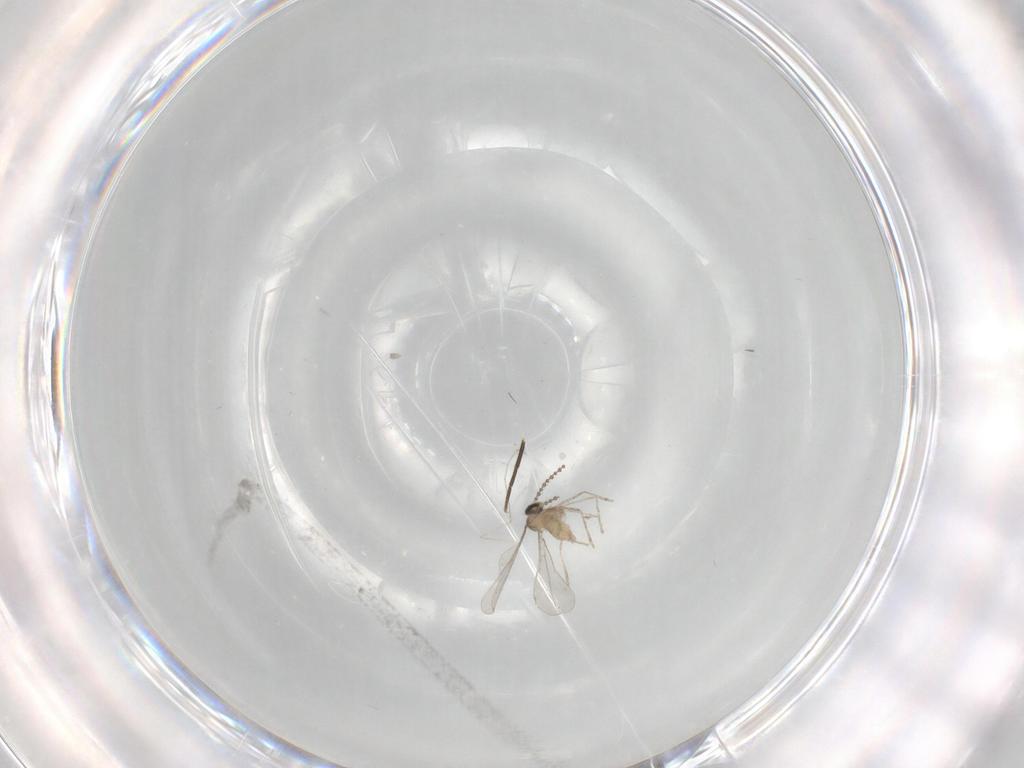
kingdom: Animalia
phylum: Arthropoda
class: Insecta
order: Diptera
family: Cecidomyiidae
